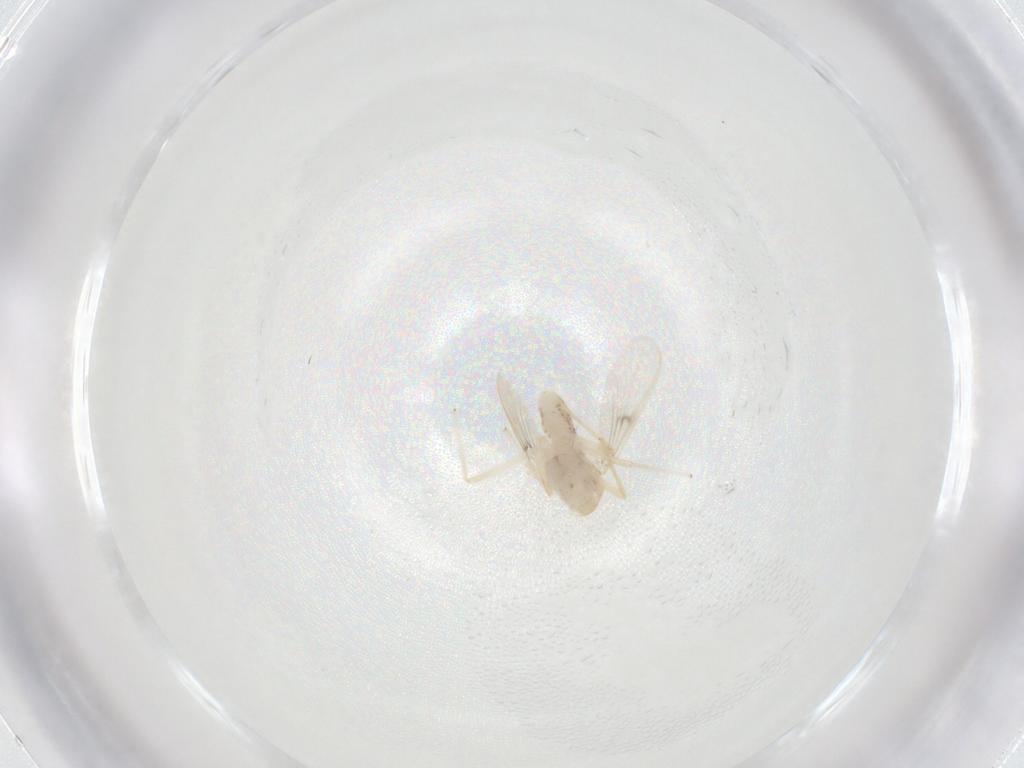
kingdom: Animalia
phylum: Arthropoda
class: Insecta
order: Diptera
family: Chironomidae
